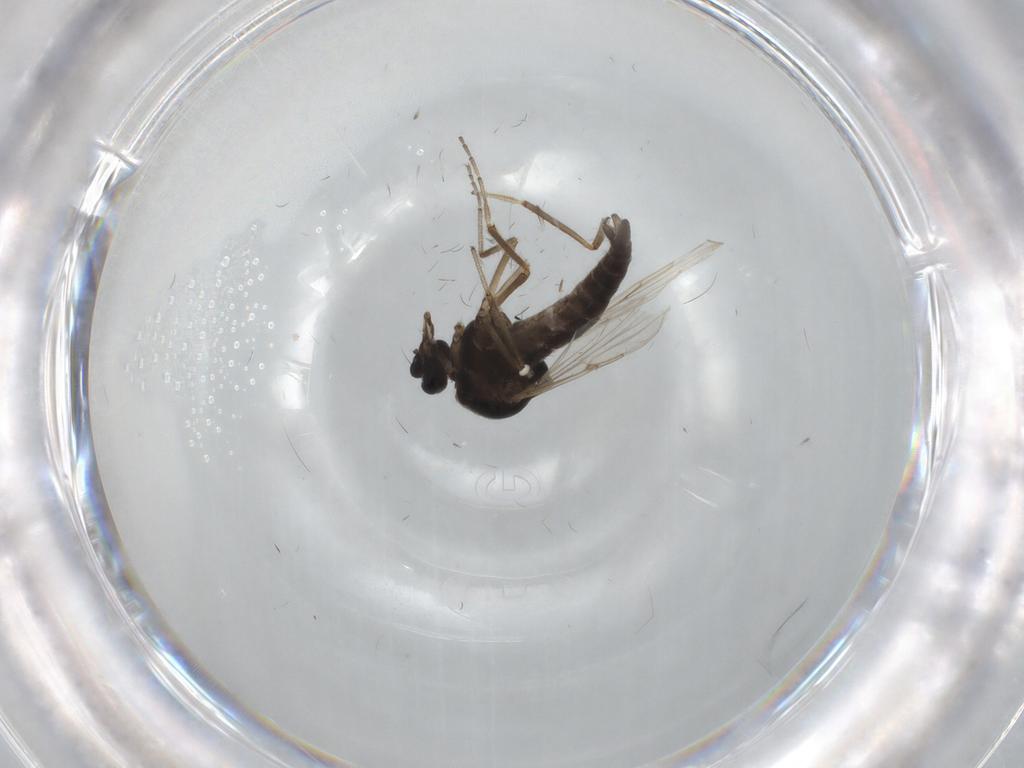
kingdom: Animalia
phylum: Arthropoda
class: Insecta
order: Diptera
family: Ceratopogonidae
